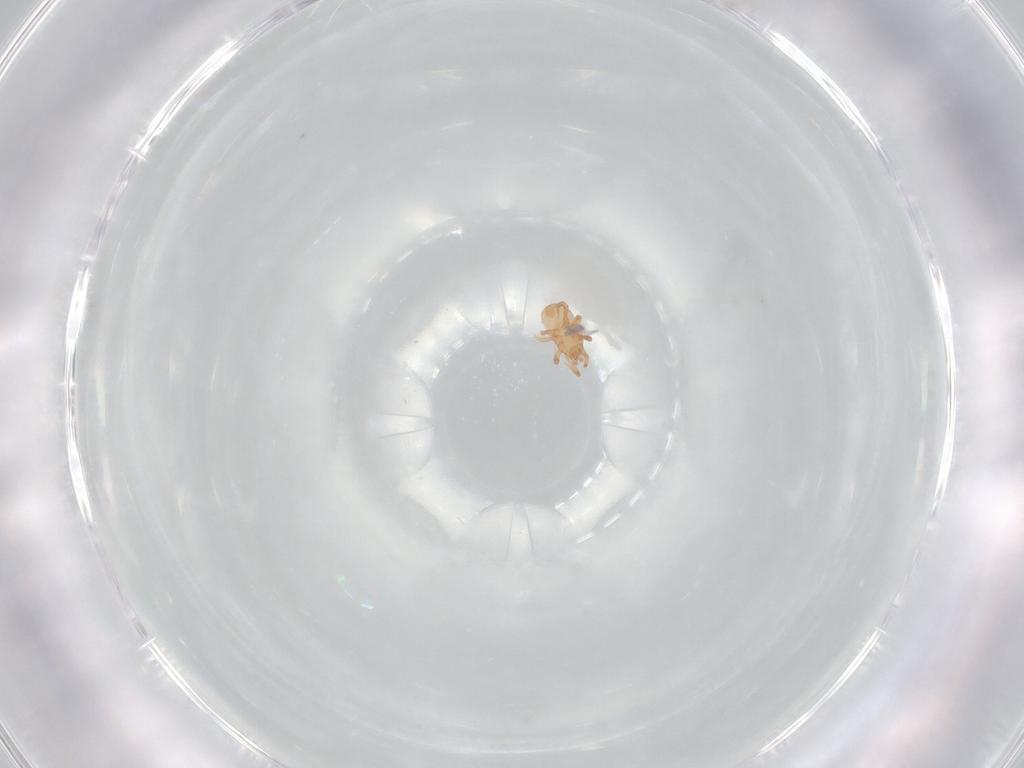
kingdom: Animalia
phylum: Arthropoda
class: Arachnida
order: Mesostigmata
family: Ascidae
